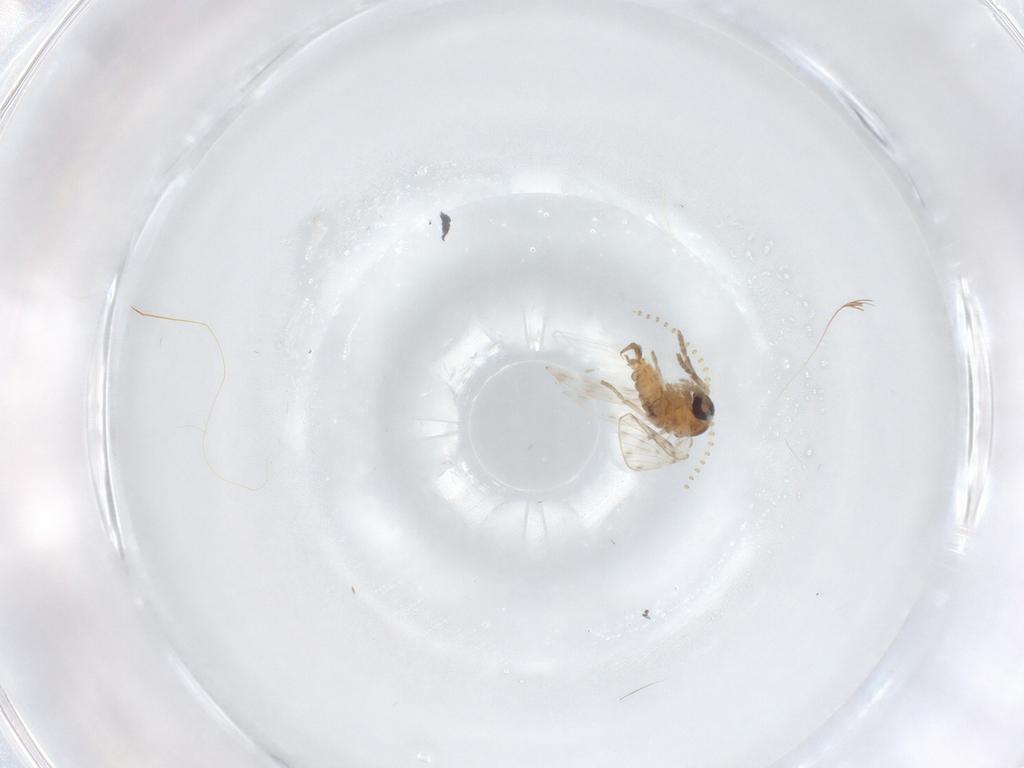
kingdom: Animalia
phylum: Arthropoda
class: Insecta
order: Diptera
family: Psychodidae
